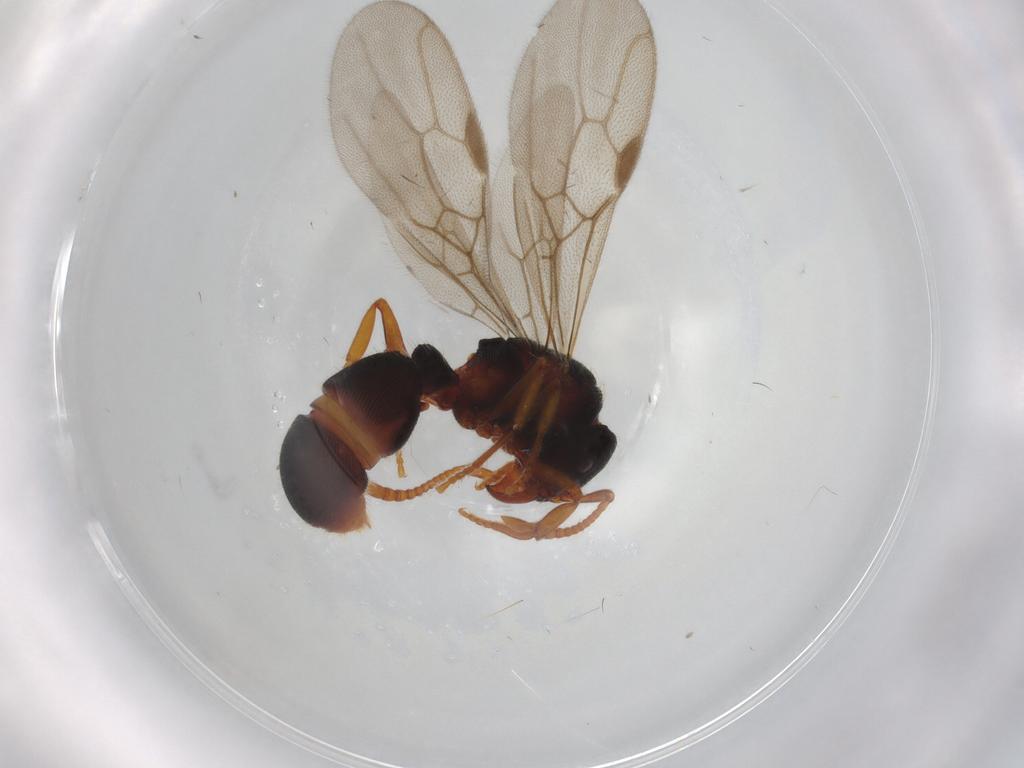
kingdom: Animalia
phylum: Arthropoda
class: Insecta
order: Hymenoptera
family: Formicidae
